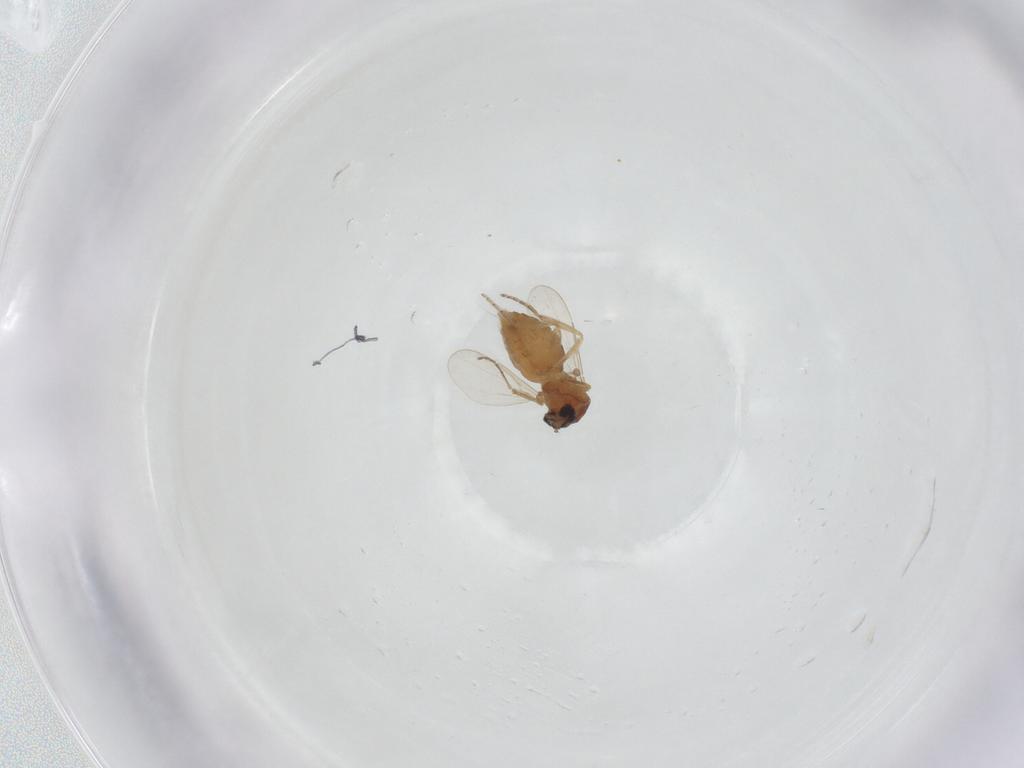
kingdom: Animalia
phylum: Arthropoda
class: Insecta
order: Diptera
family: Ceratopogonidae
